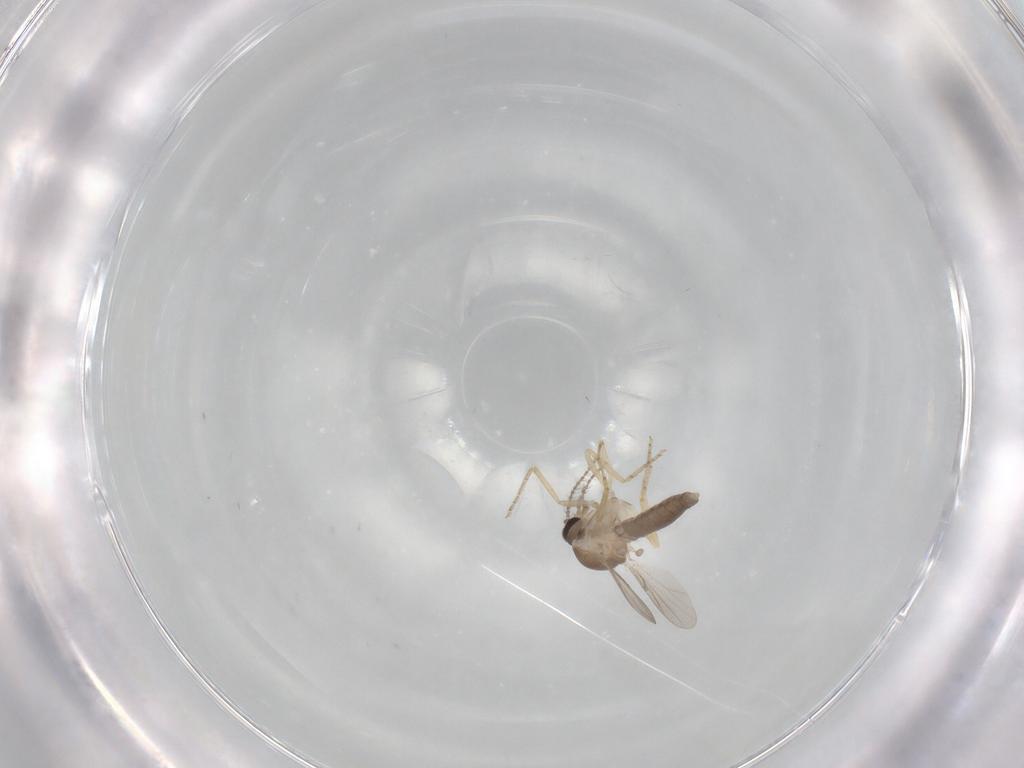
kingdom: Animalia
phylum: Arthropoda
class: Insecta
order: Diptera
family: Ceratopogonidae
